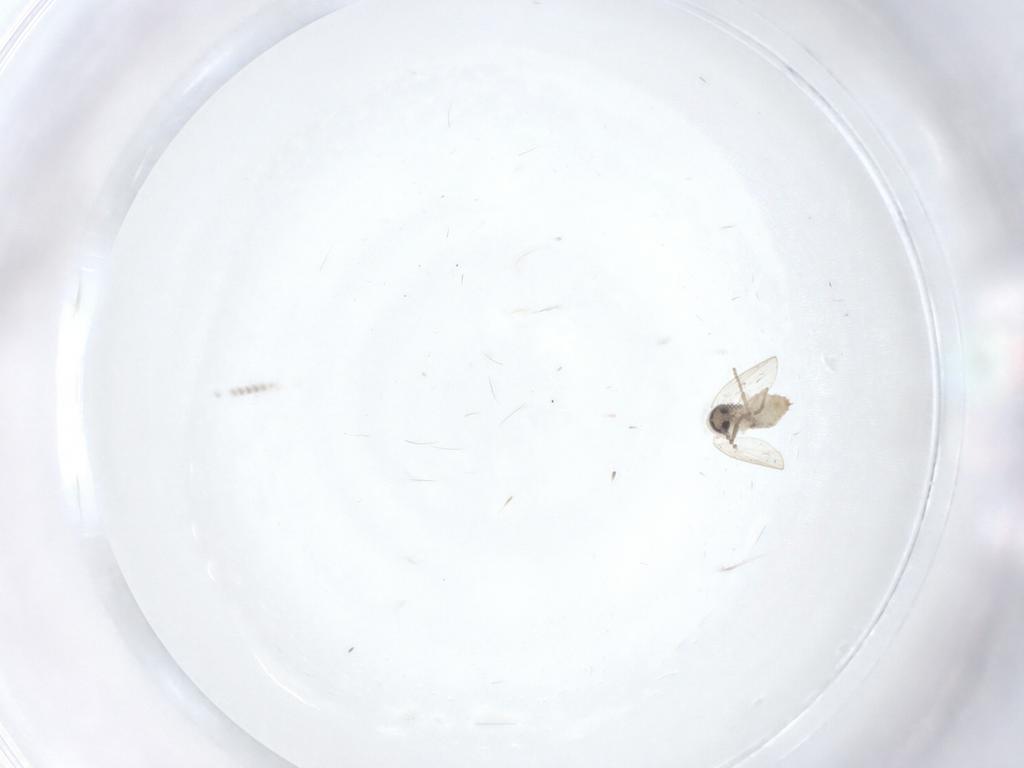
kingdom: Animalia
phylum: Arthropoda
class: Insecta
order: Diptera
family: Psychodidae
